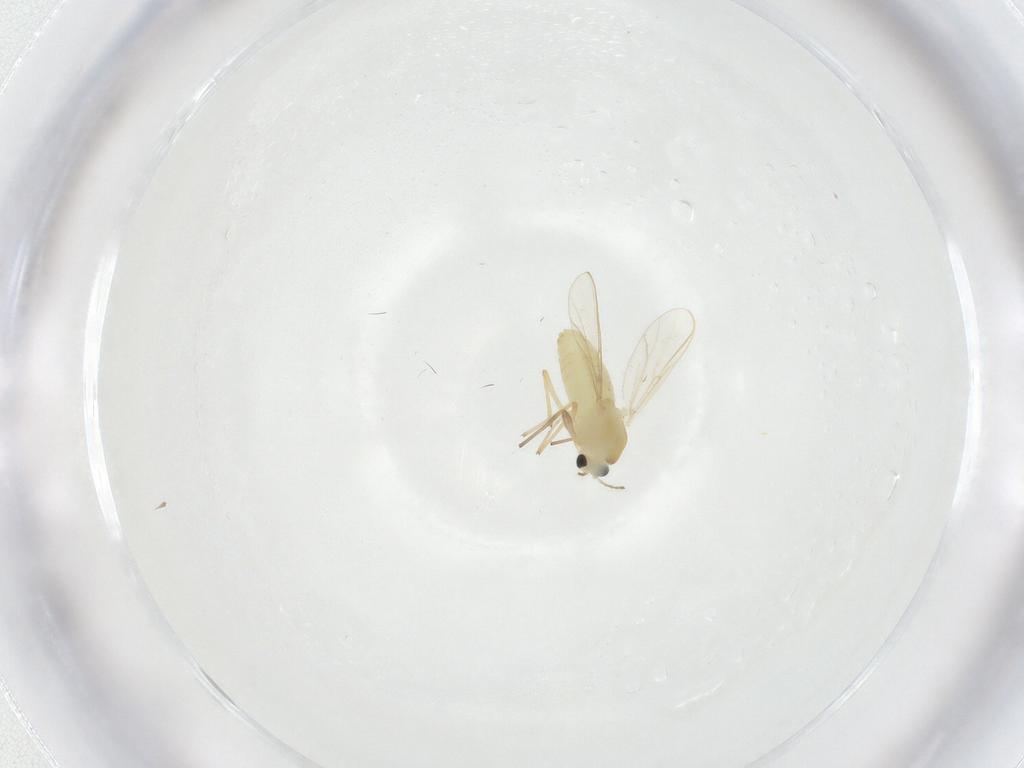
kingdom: Animalia
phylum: Arthropoda
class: Insecta
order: Diptera
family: Chironomidae
